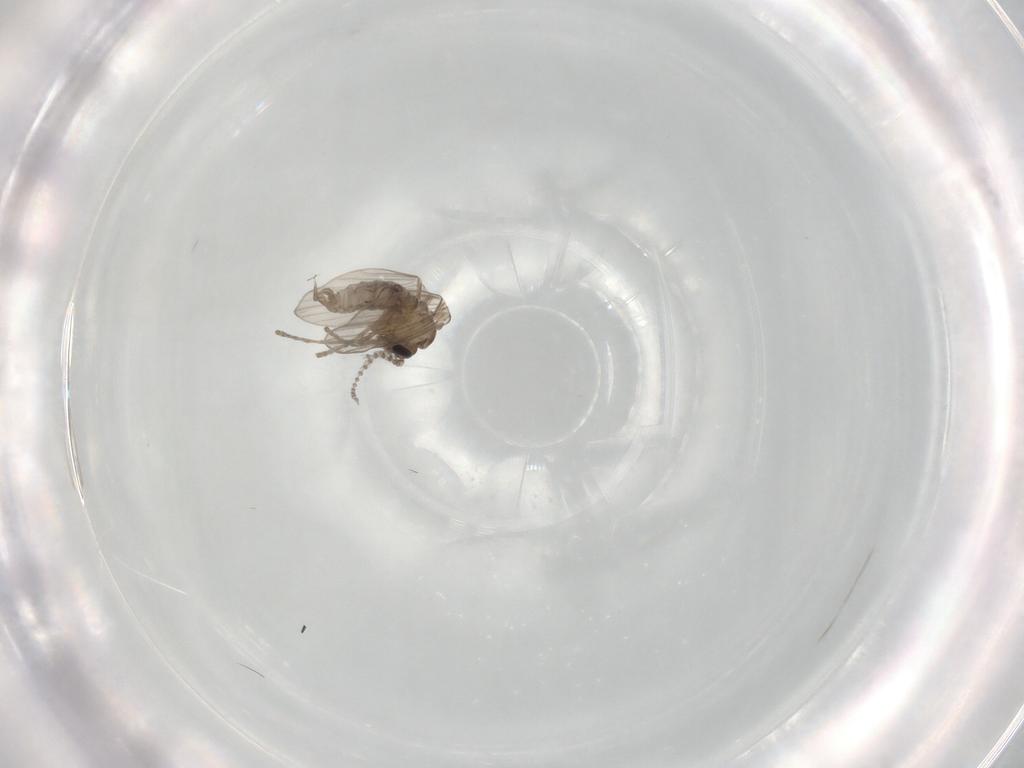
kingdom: Animalia
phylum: Arthropoda
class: Insecta
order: Diptera
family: Psychodidae
